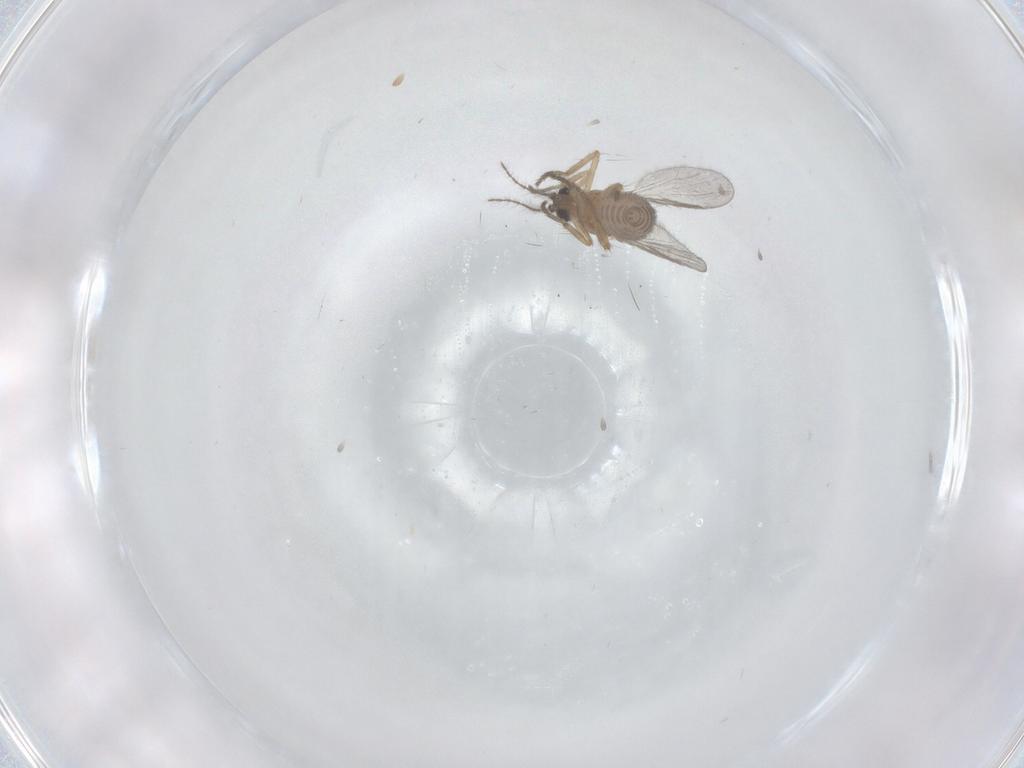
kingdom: Animalia
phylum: Arthropoda
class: Insecta
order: Diptera
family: Ceratopogonidae
